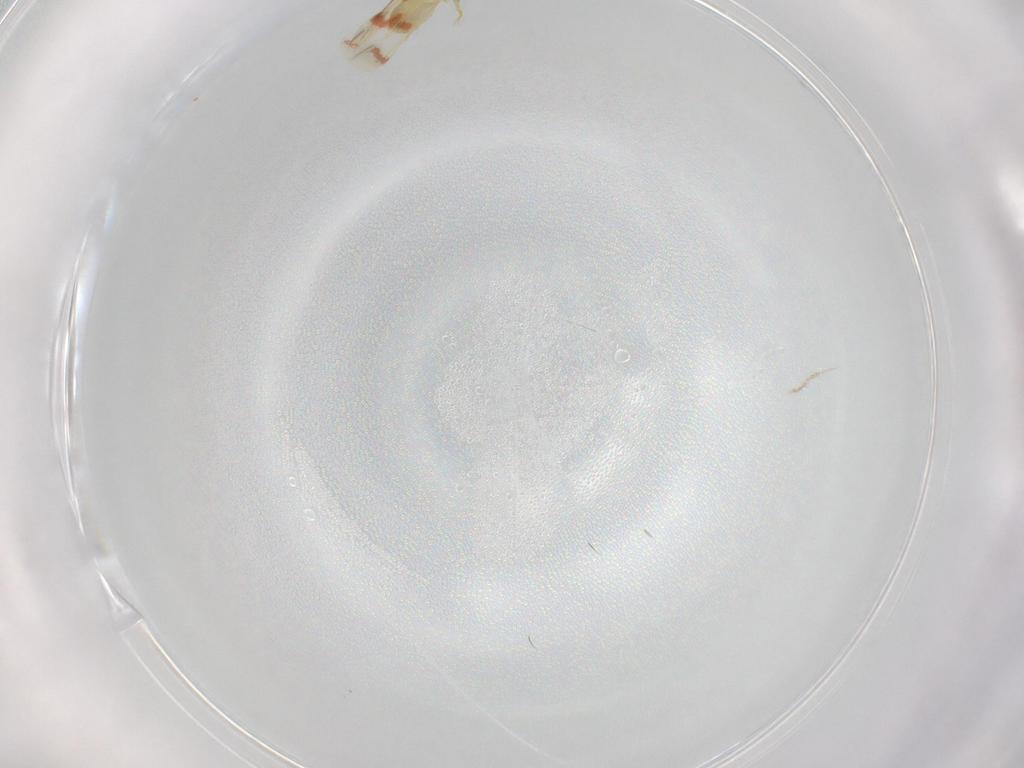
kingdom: Animalia
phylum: Arthropoda
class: Insecta
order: Hemiptera
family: Aleyrodidae
